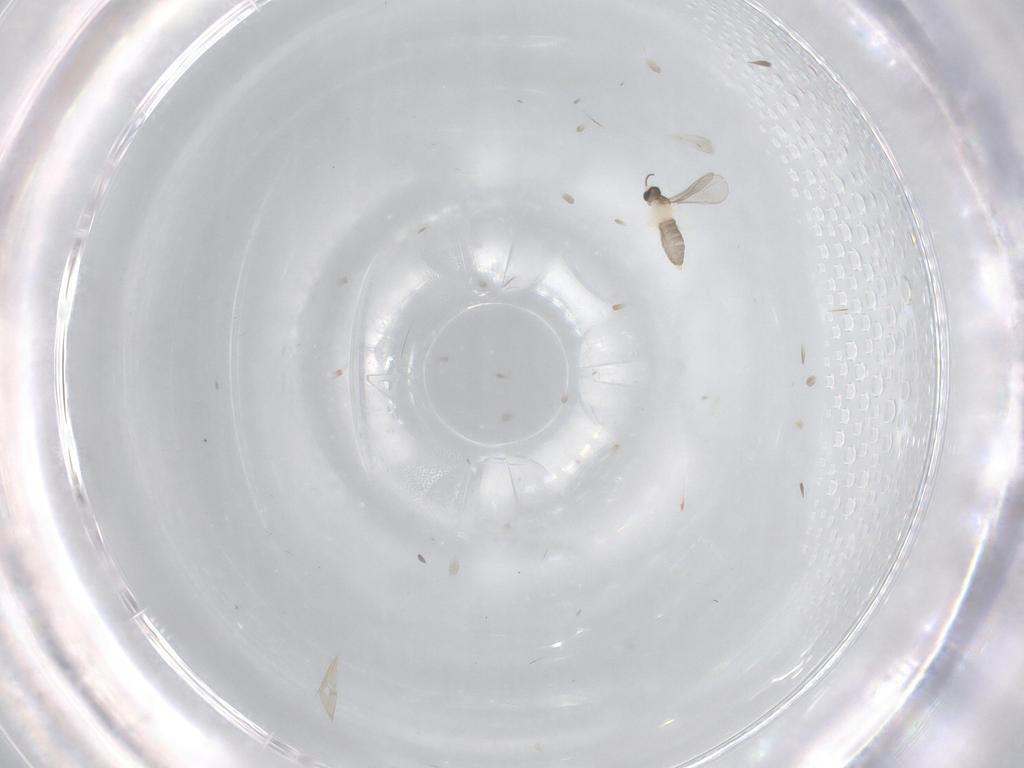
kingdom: Animalia
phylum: Arthropoda
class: Insecta
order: Diptera
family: Cecidomyiidae
